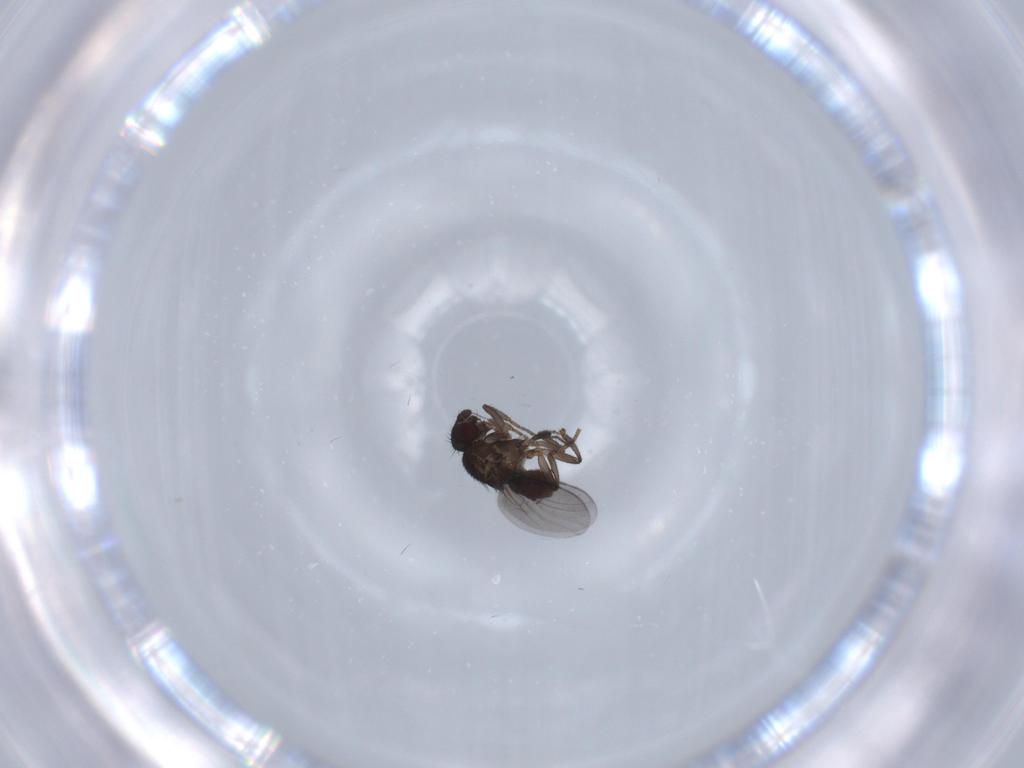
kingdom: Animalia
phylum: Arthropoda
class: Insecta
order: Diptera
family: Sphaeroceridae
